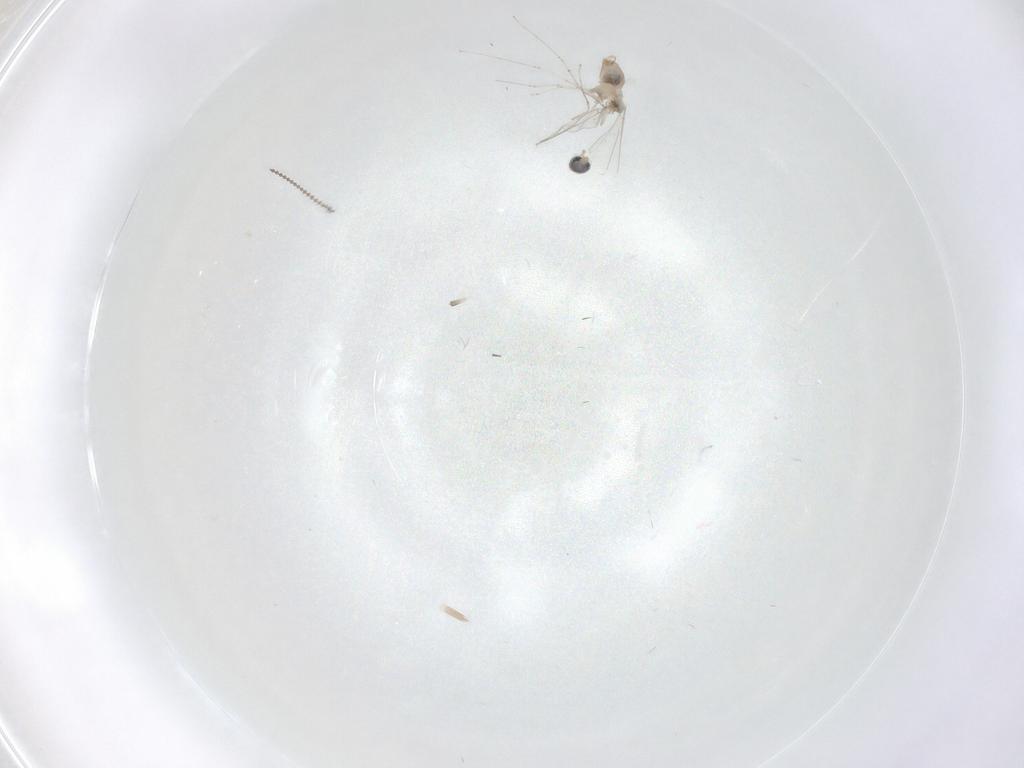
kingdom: Animalia
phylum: Arthropoda
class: Insecta
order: Diptera
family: Cecidomyiidae
